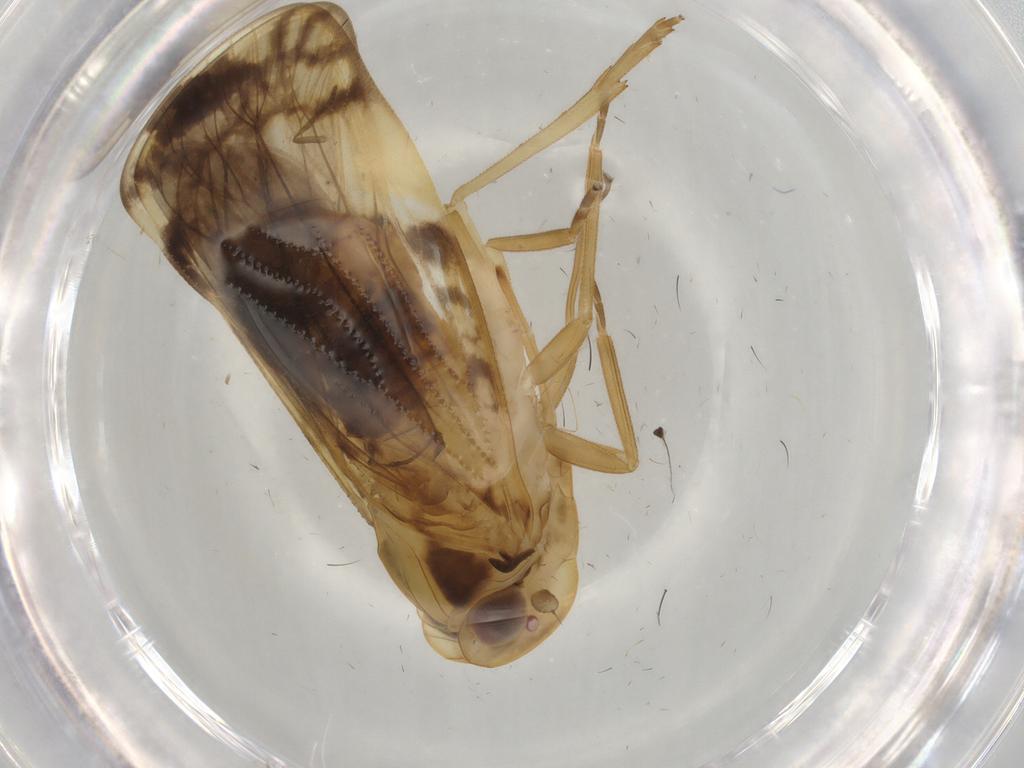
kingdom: Animalia
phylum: Arthropoda
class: Insecta
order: Hemiptera
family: Cixiidae
